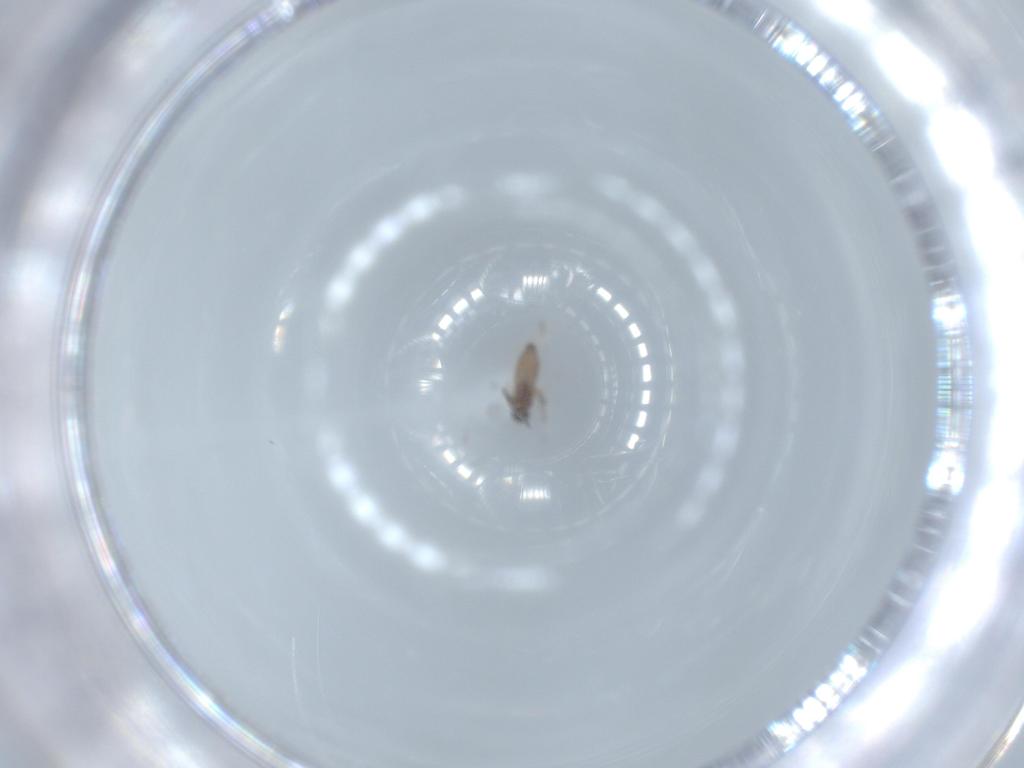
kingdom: Animalia
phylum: Arthropoda
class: Insecta
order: Diptera
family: Cecidomyiidae
